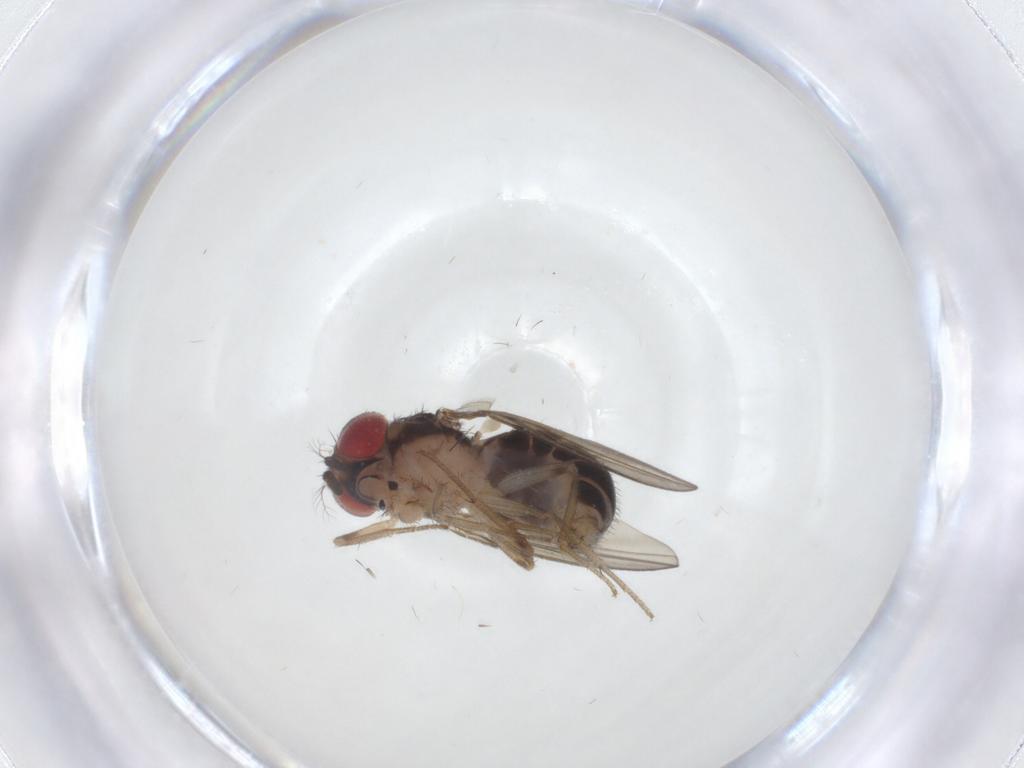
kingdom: Animalia
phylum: Arthropoda
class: Insecta
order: Diptera
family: Drosophilidae
